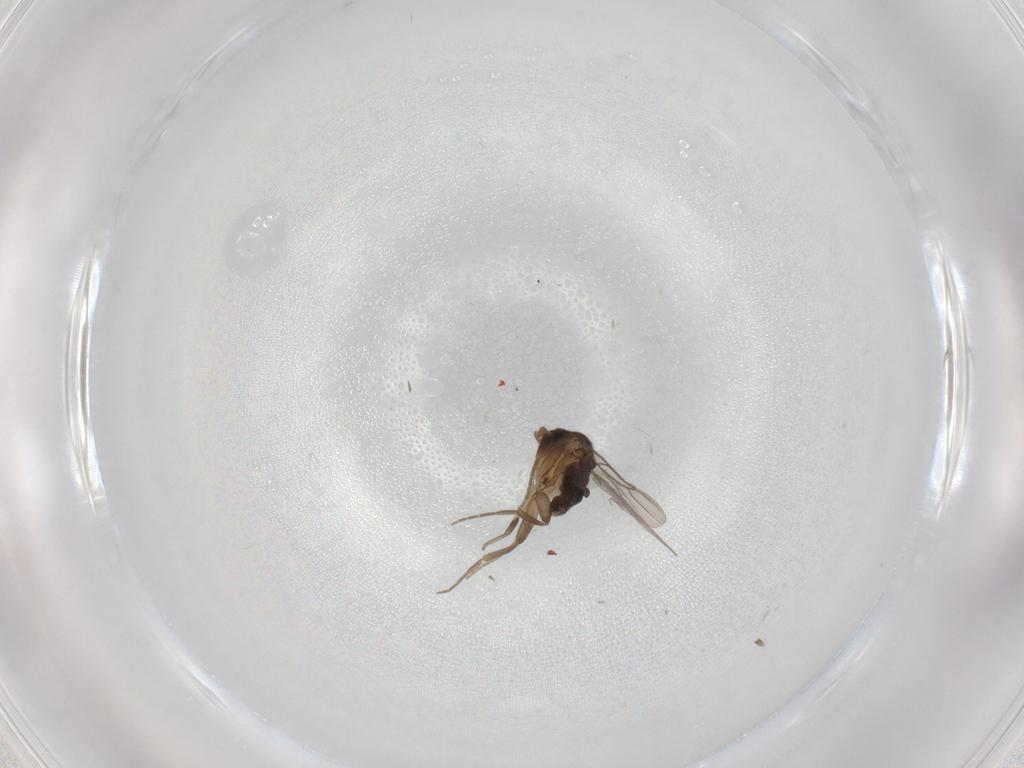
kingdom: Animalia
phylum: Arthropoda
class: Insecta
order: Diptera
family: Phoridae
